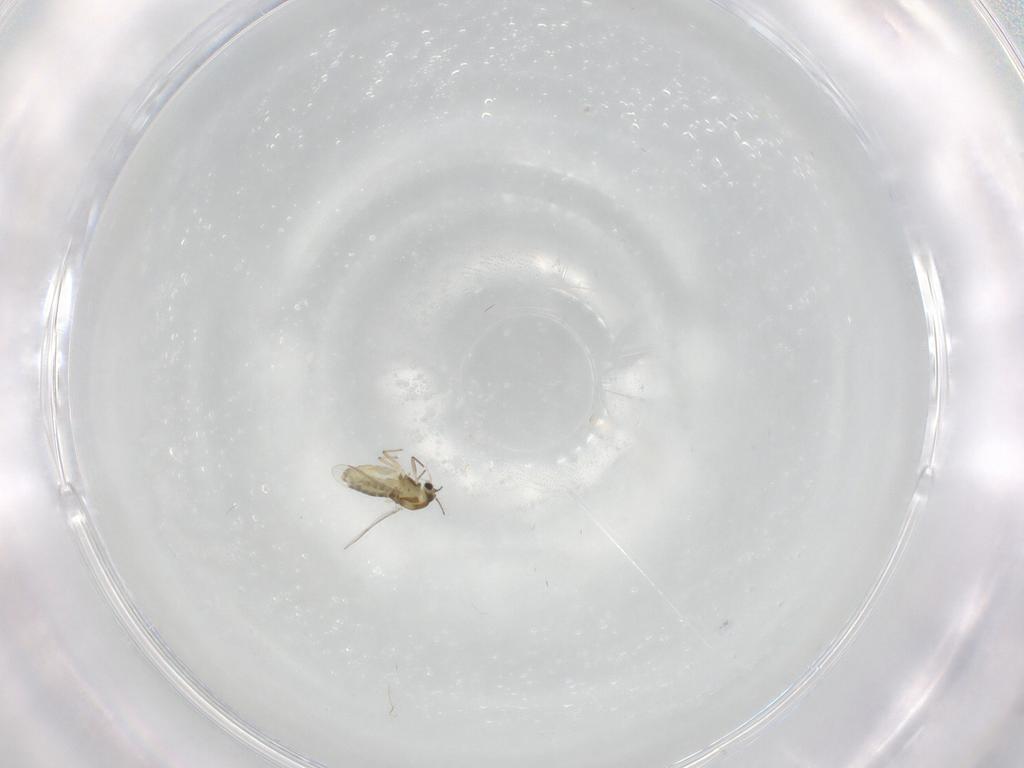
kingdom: Animalia
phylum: Arthropoda
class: Insecta
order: Diptera
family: Chironomidae
